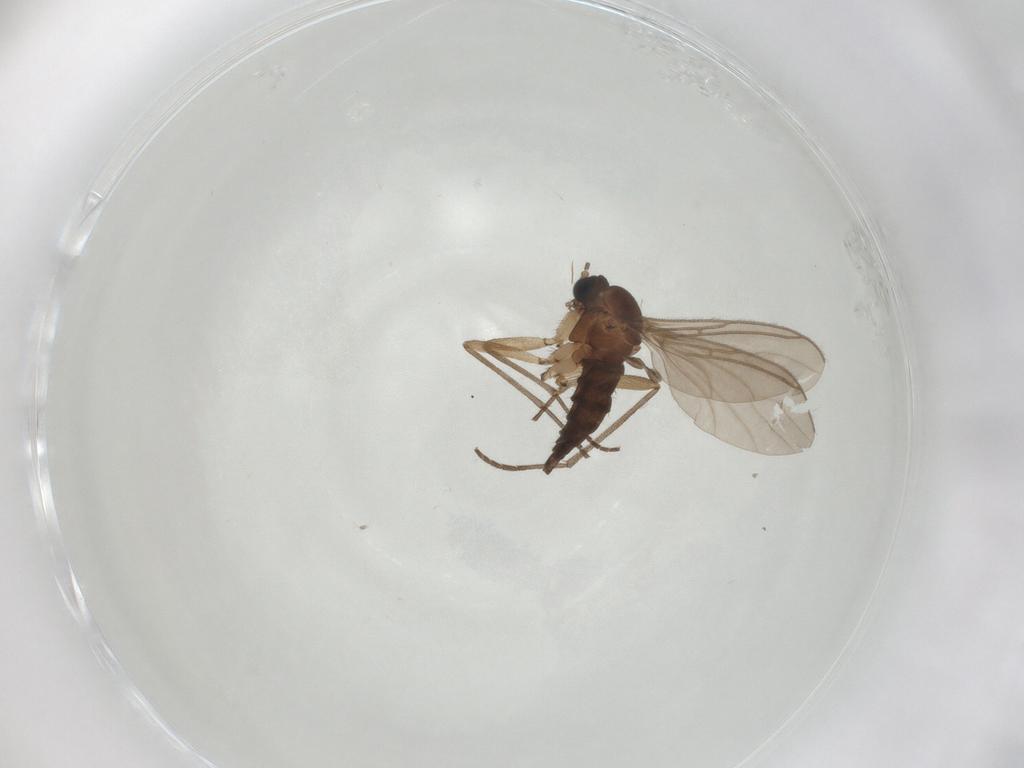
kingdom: Animalia
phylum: Arthropoda
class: Insecta
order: Diptera
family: Sciaridae
